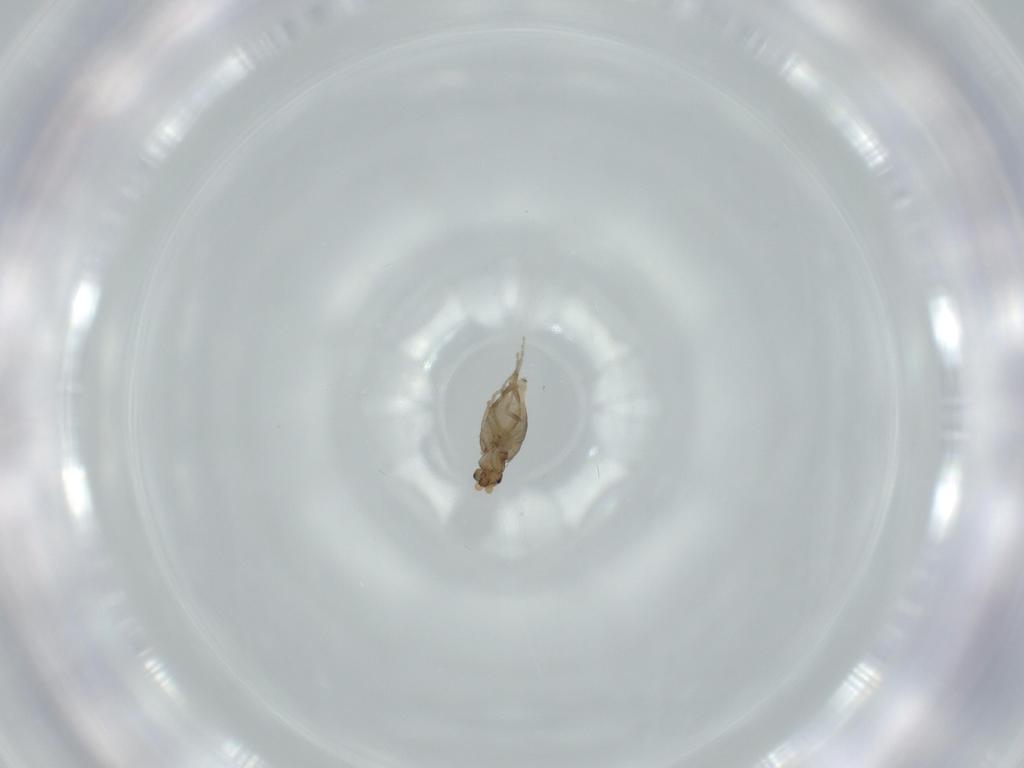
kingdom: Animalia
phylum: Arthropoda
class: Insecta
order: Diptera
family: Phoridae
